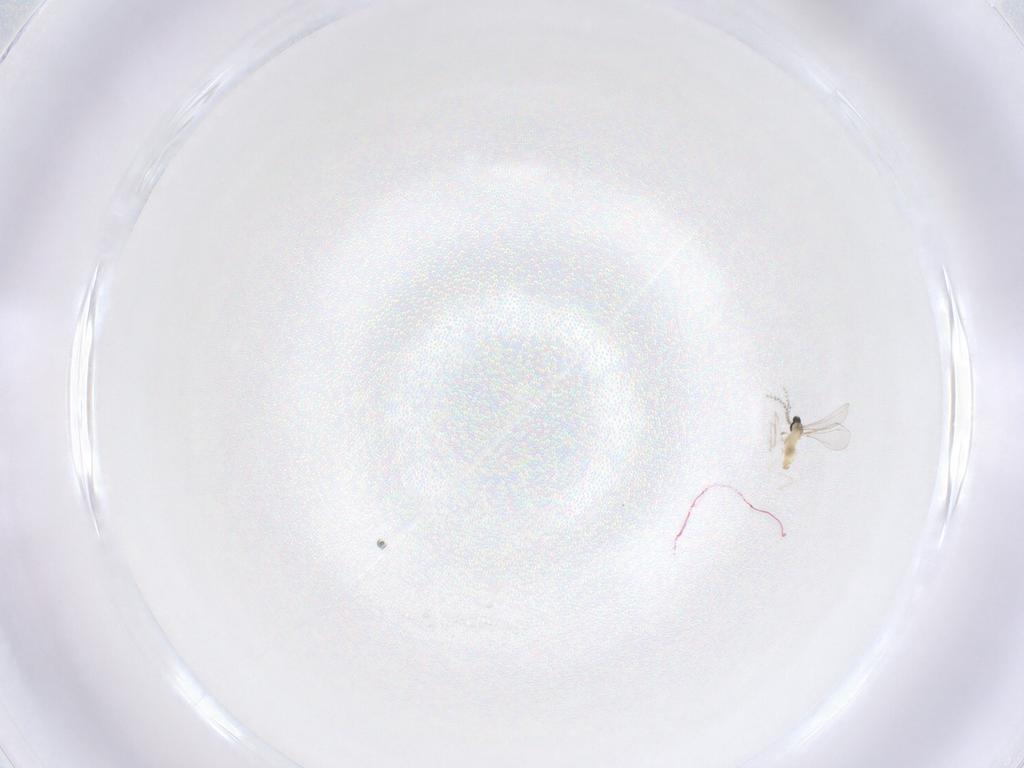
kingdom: Animalia
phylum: Arthropoda
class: Insecta
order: Diptera
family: Cecidomyiidae
